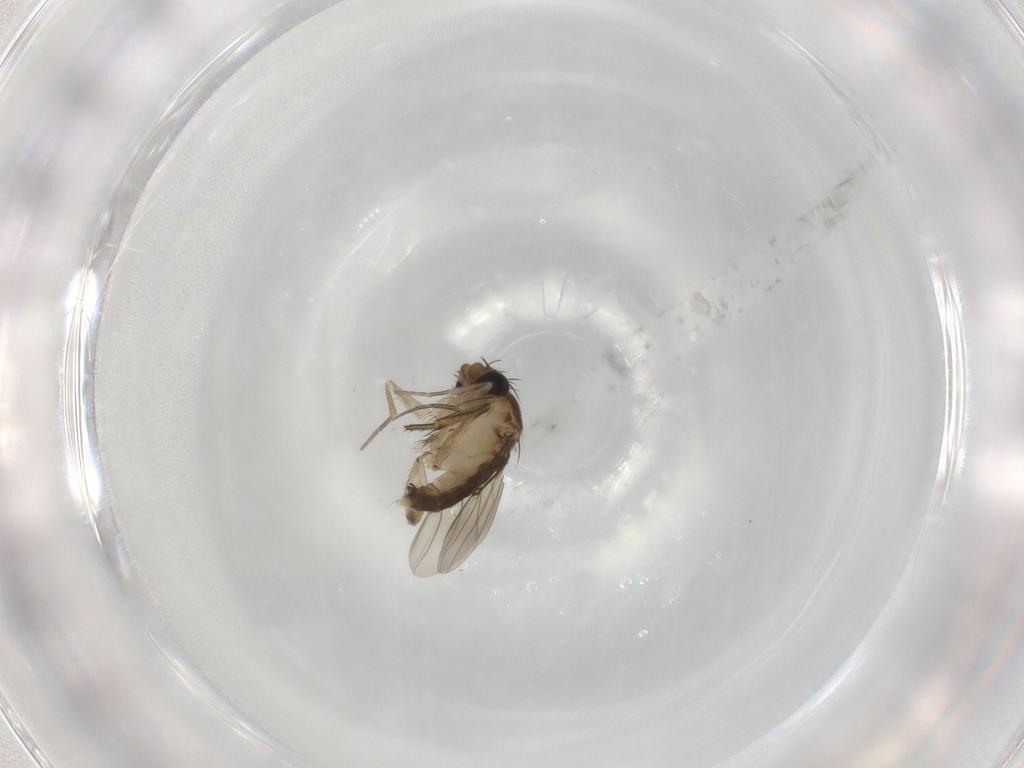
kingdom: Animalia
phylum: Arthropoda
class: Insecta
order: Diptera
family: Phoridae
